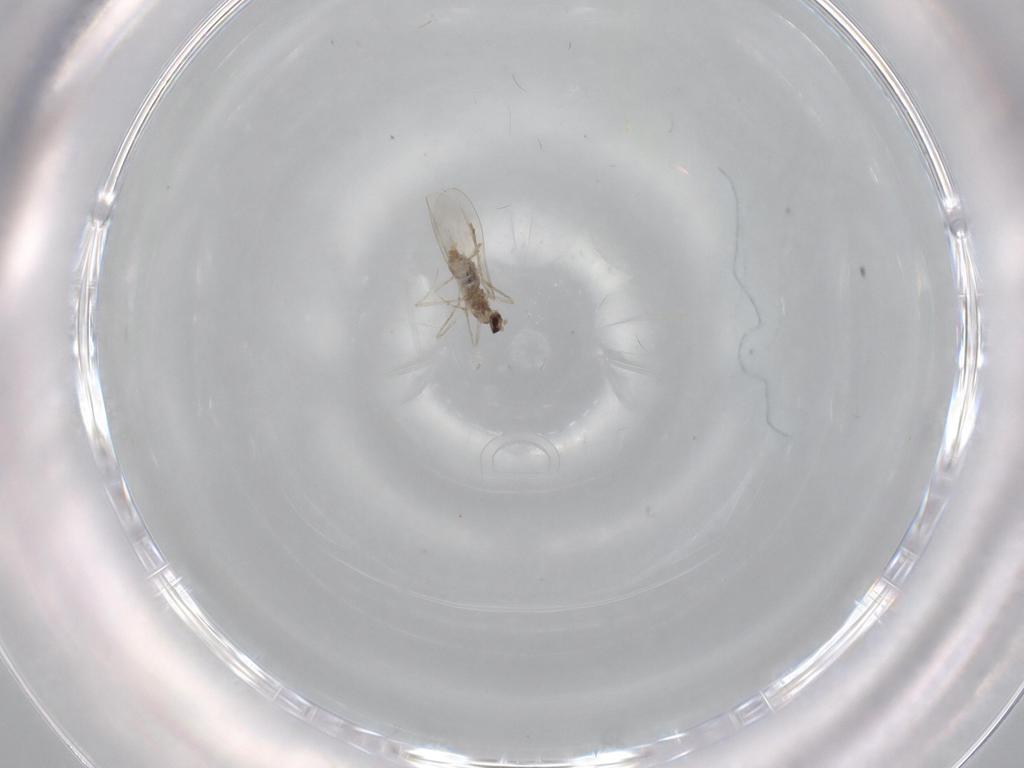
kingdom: Animalia
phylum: Arthropoda
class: Insecta
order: Diptera
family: Cecidomyiidae
